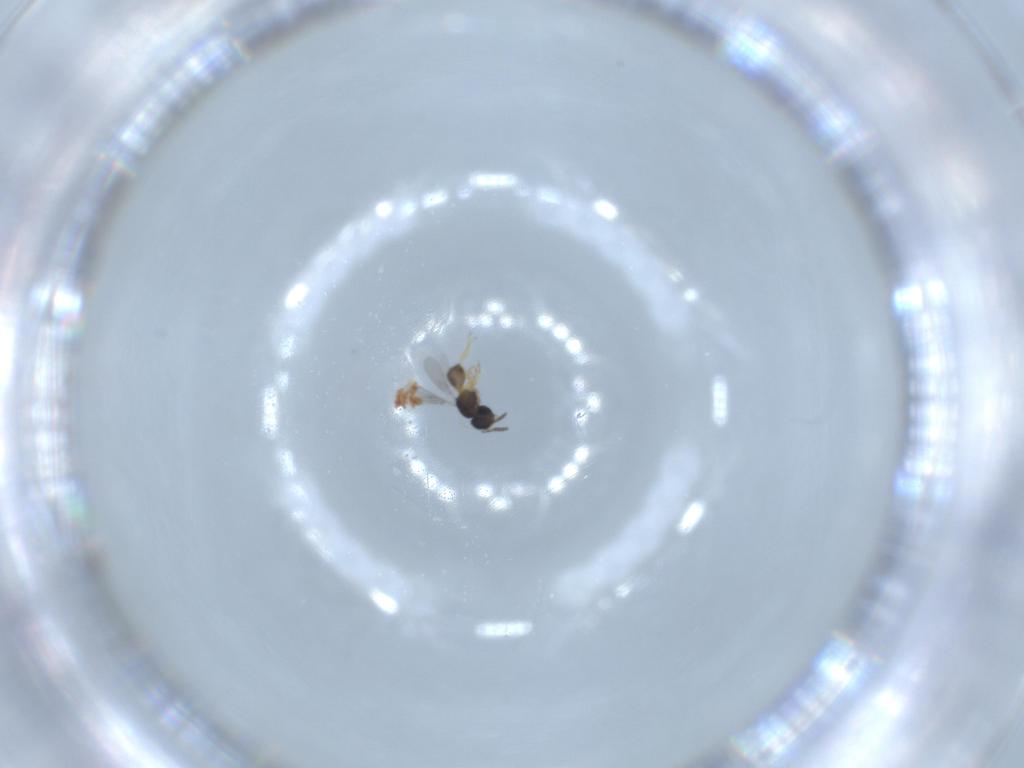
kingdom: Animalia
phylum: Arthropoda
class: Insecta
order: Hymenoptera
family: Scelionidae
